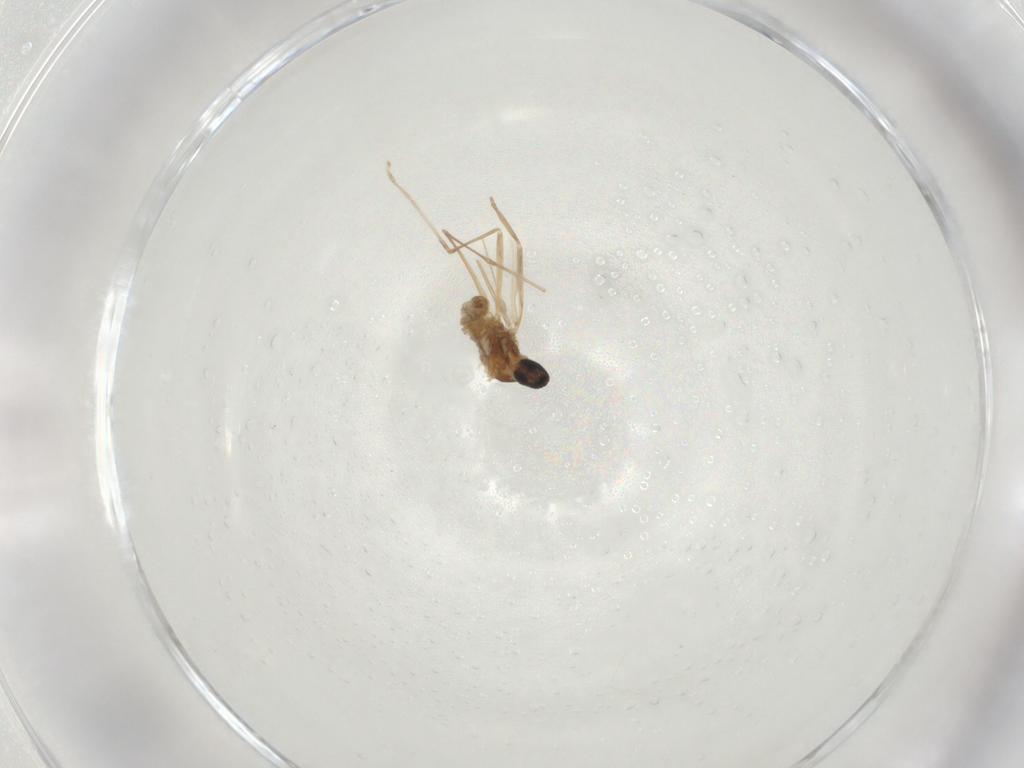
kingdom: Animalia
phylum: Arthropoda
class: Insecta
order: Diptera
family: Cecidomyiidae
